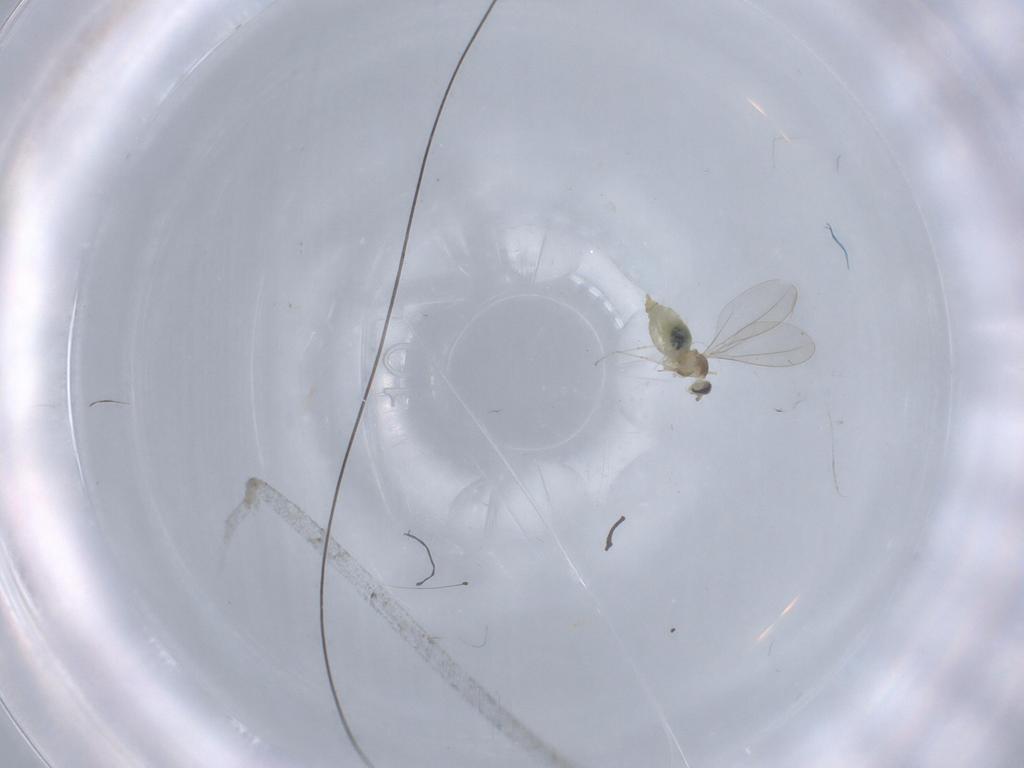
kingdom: Animalia
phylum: Arthropoda
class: Insecta
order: Diptera
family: Cecidomyiidae
